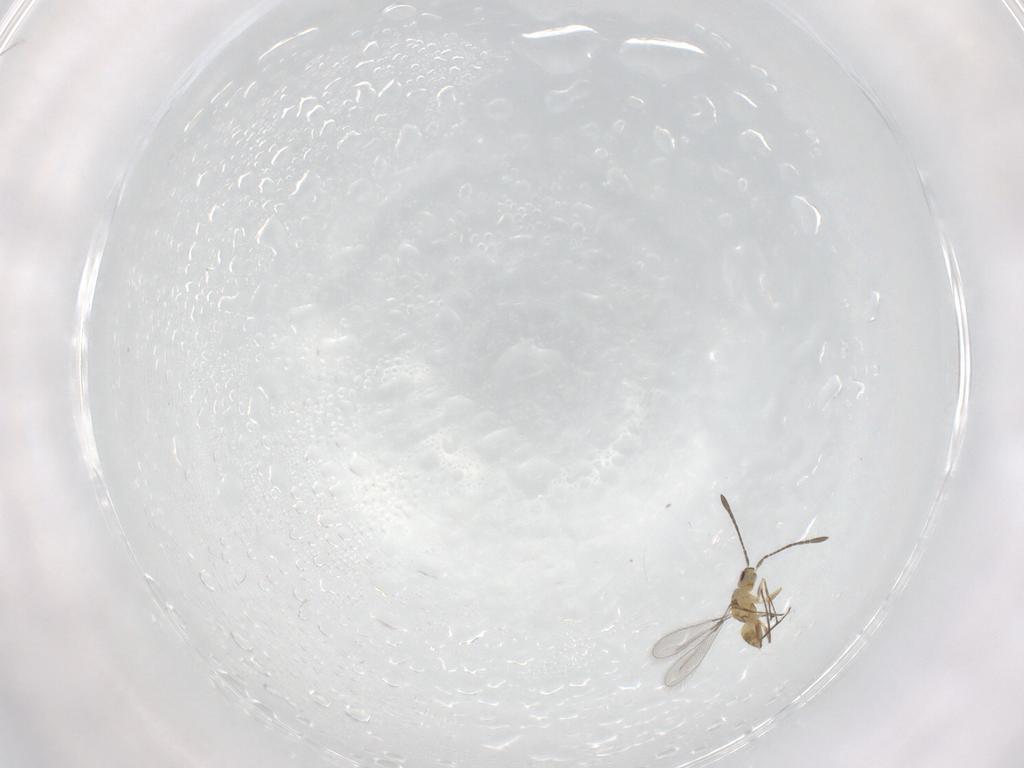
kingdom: Animalia
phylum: Arthropoda
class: Insecta
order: Hymenoptera
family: Mymaridae
